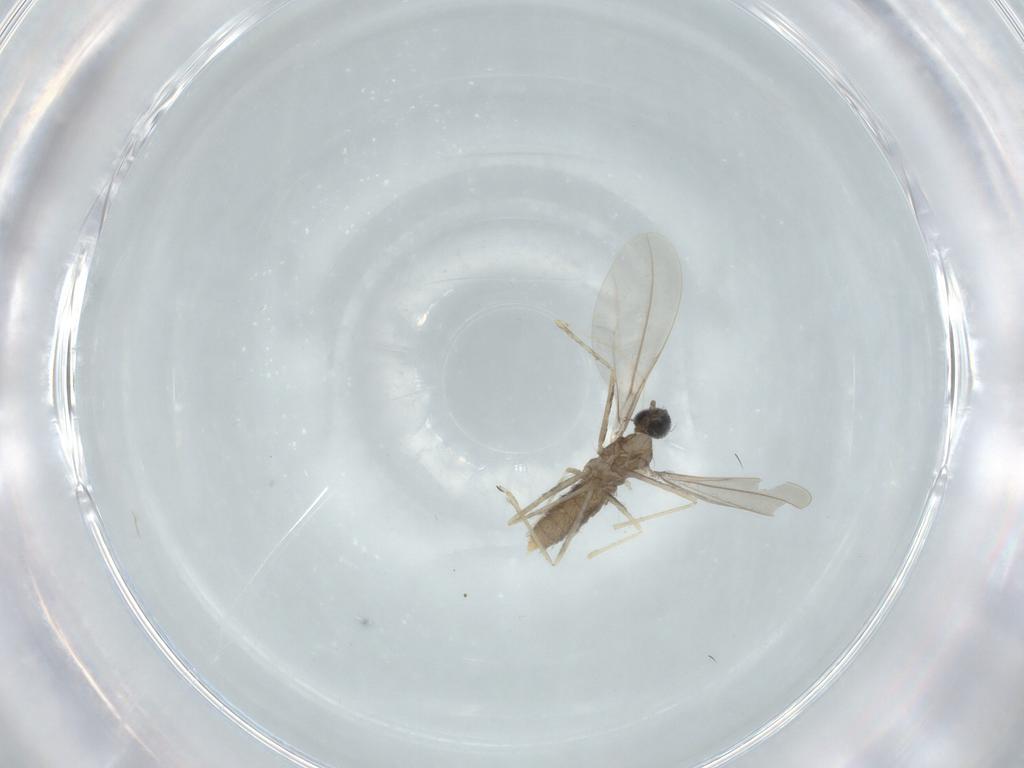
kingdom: Animalia
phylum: Arthropoda
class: Insecta
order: Diptera
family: Cecidomyiidae
